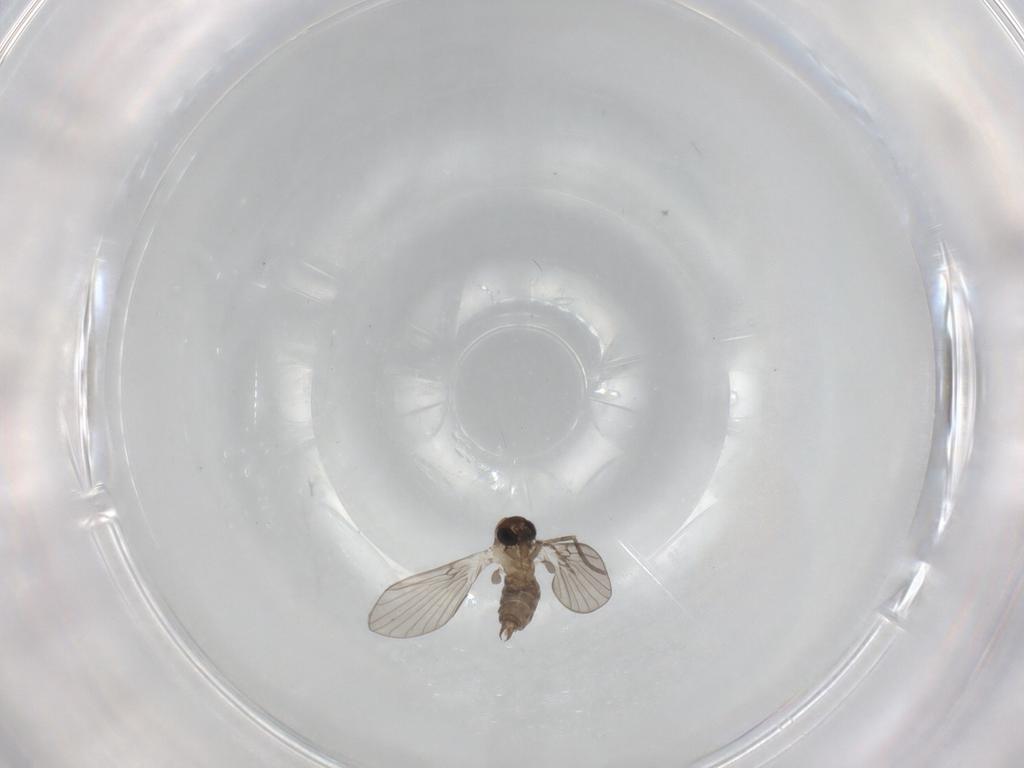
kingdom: Animalia
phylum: Arthropoda
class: Insecta
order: Diptera
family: Psychodidae
